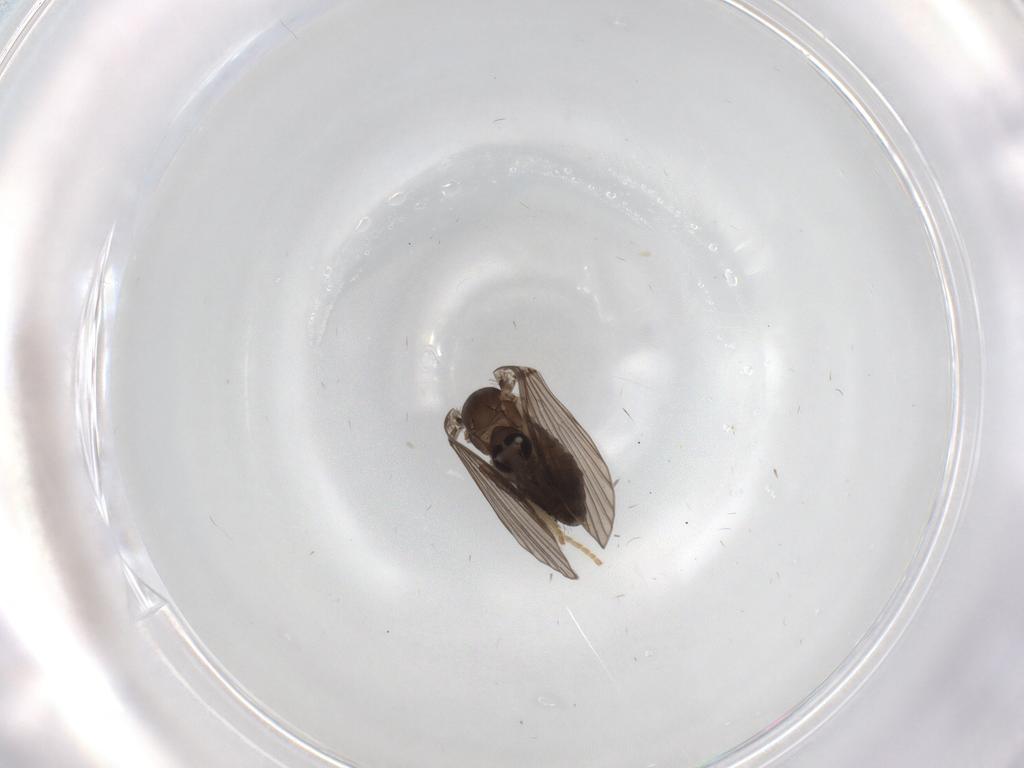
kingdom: Animalia
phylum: Arthropoda
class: Insecta
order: Diptera
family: Psychodidae
